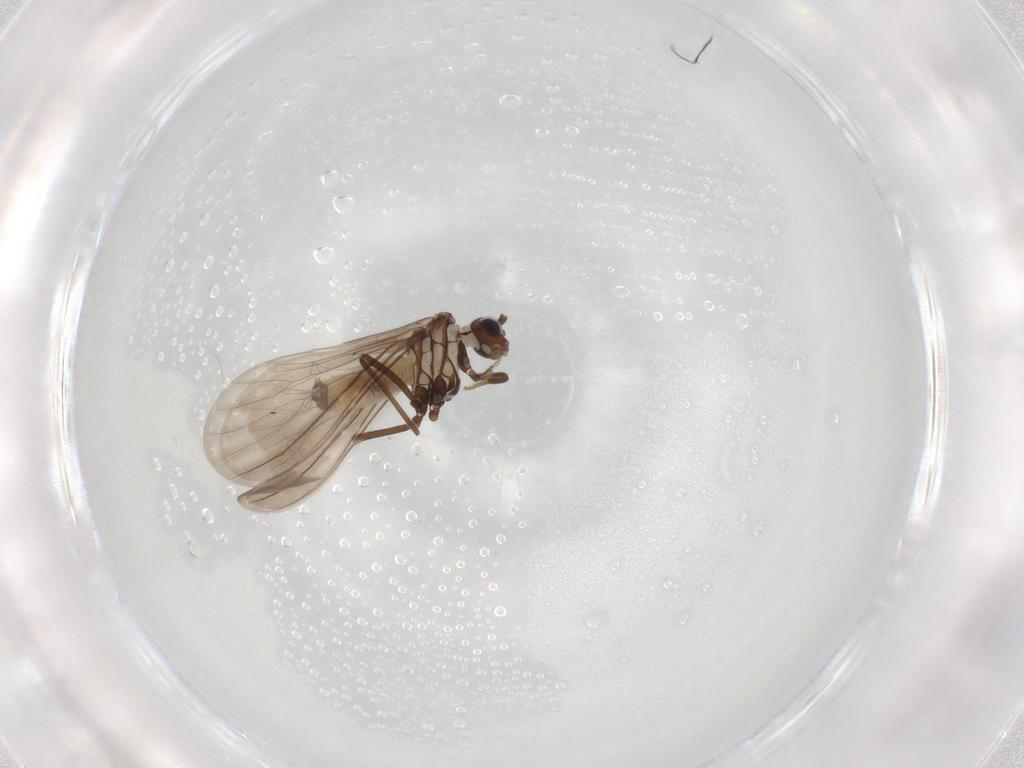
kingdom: Animalia
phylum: Arthropoda
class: Insecta
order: Neuroptera
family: Coniopterygidae
